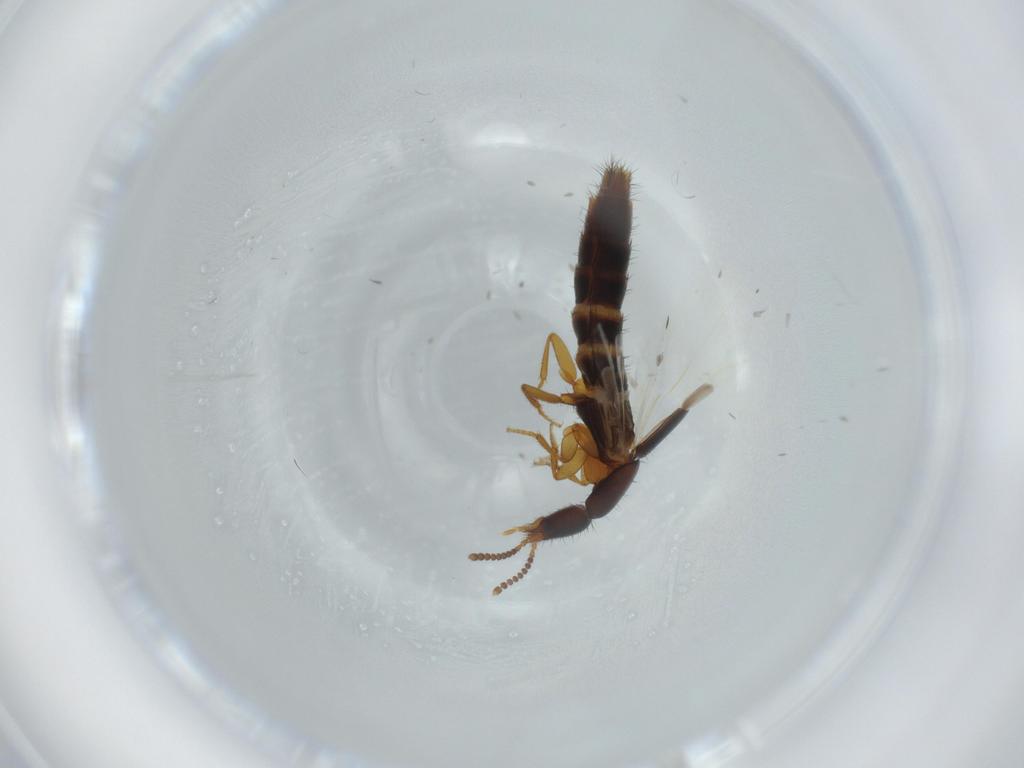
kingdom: Animalia
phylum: Arthropoda
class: Insecta
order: Coleoptera
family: Staphylinidae
